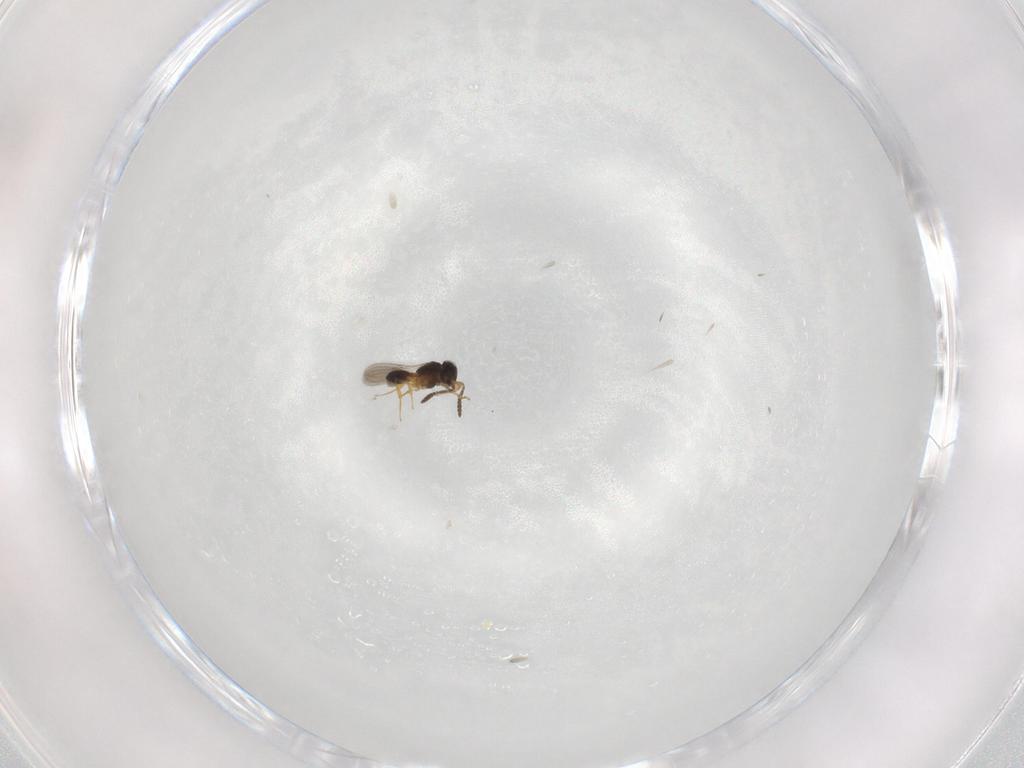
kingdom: Animalia
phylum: Arthropoda
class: Insecta
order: Hymenoptera
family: Scelionidae
